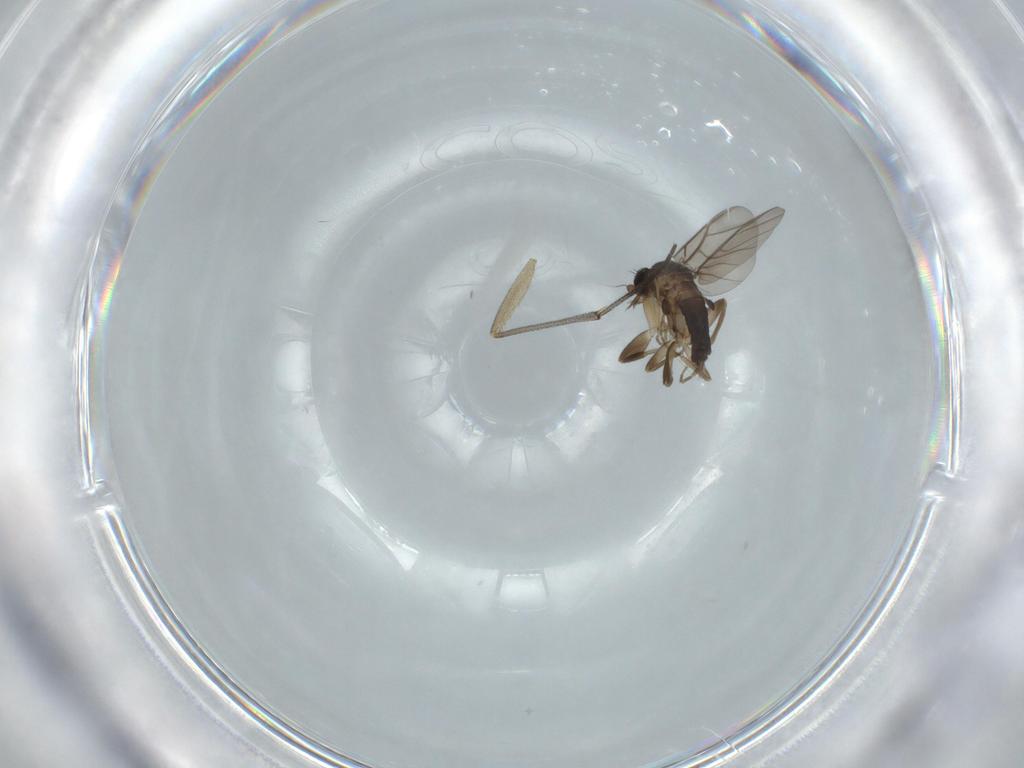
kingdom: Animalia
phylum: Arthropoda
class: Insecta
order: Diptera
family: Sciaridae
